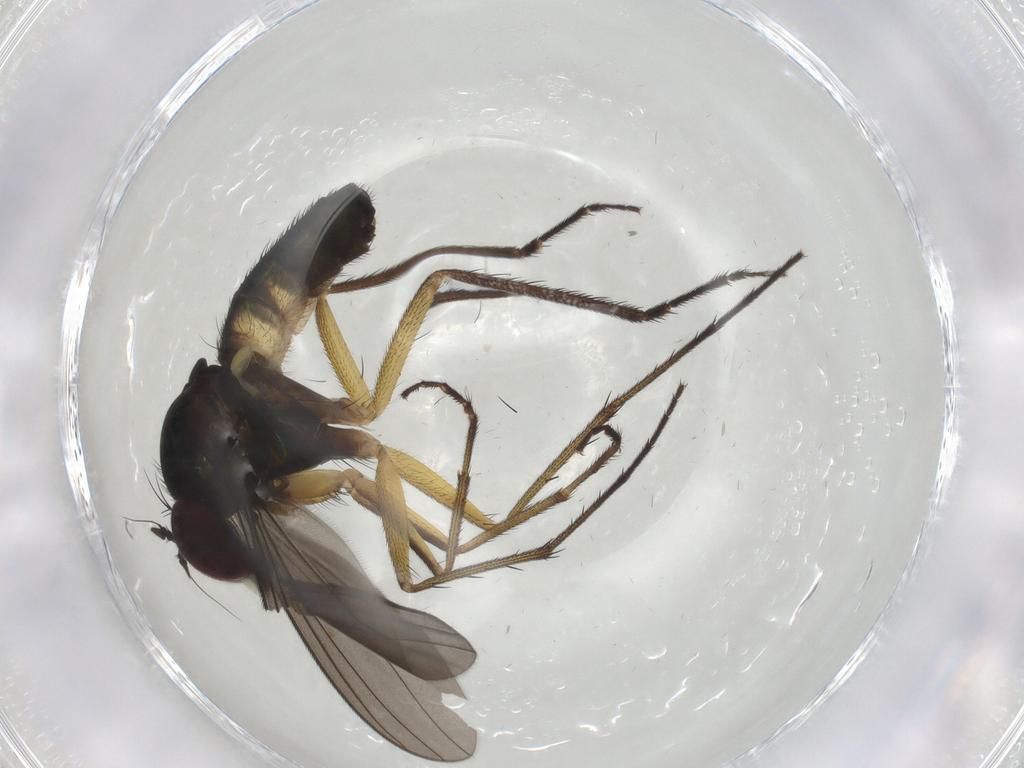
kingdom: Animalia
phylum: Arthropoda
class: Insecta
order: Diptera
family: Dolichopodidae
